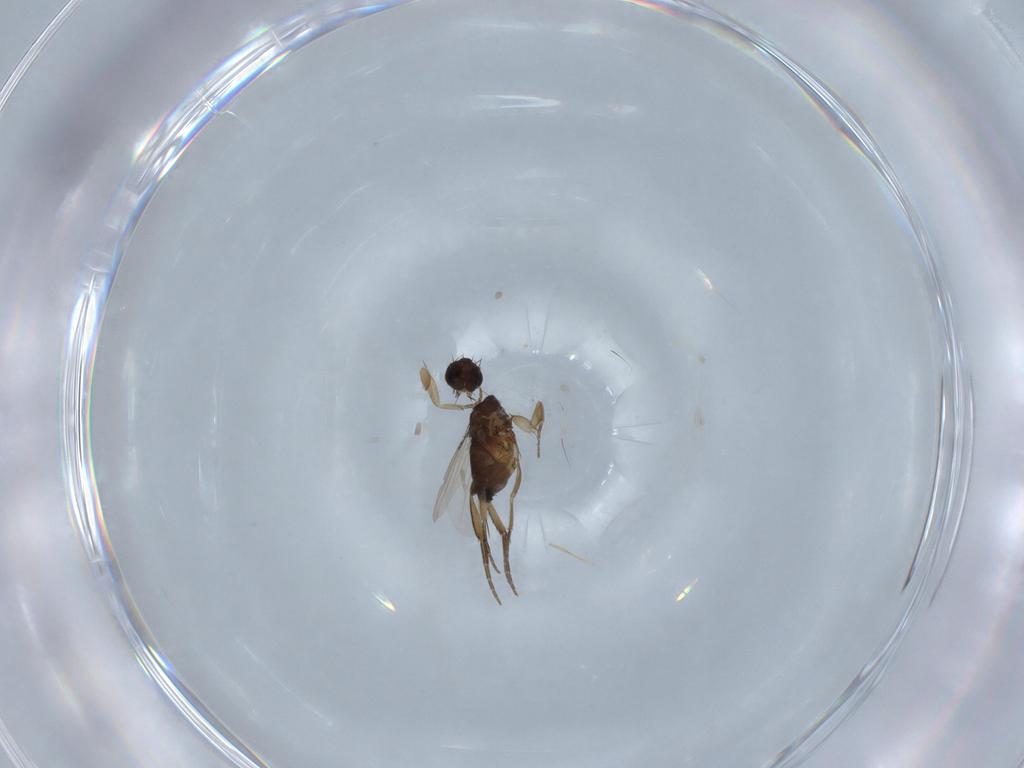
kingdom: Animalia
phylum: Arthropoda
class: Insecta
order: Diptera
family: Phoridae
